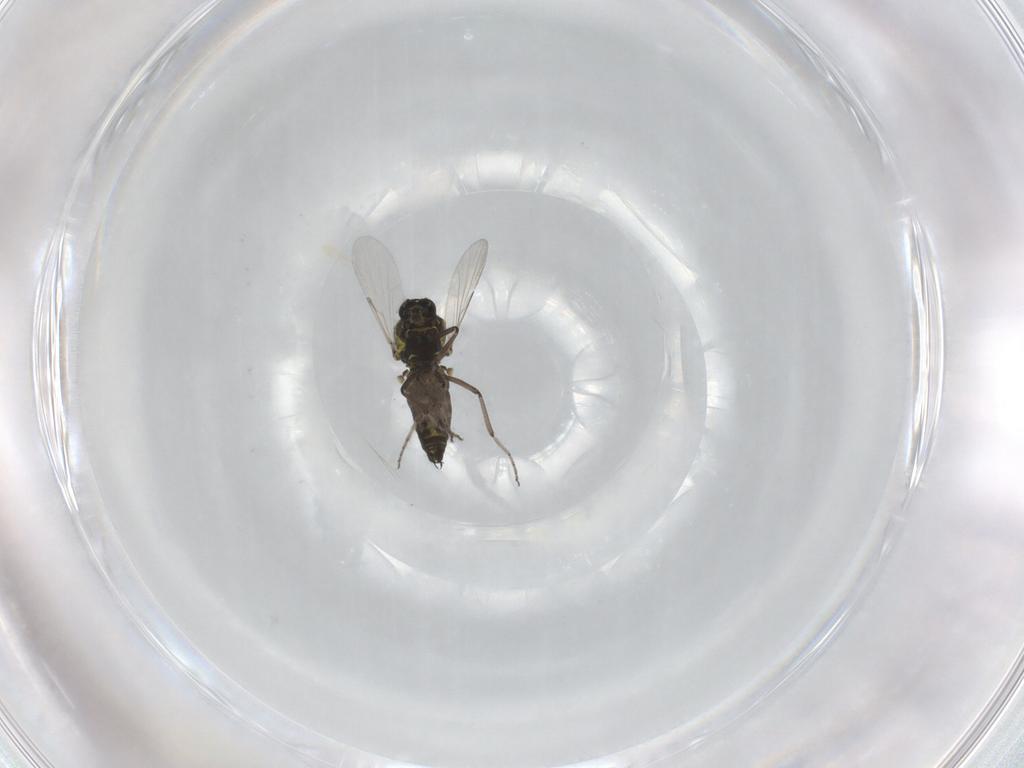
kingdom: Animalia
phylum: Arthropoda
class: Insecta
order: Diptera
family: Ceratopogonidae
